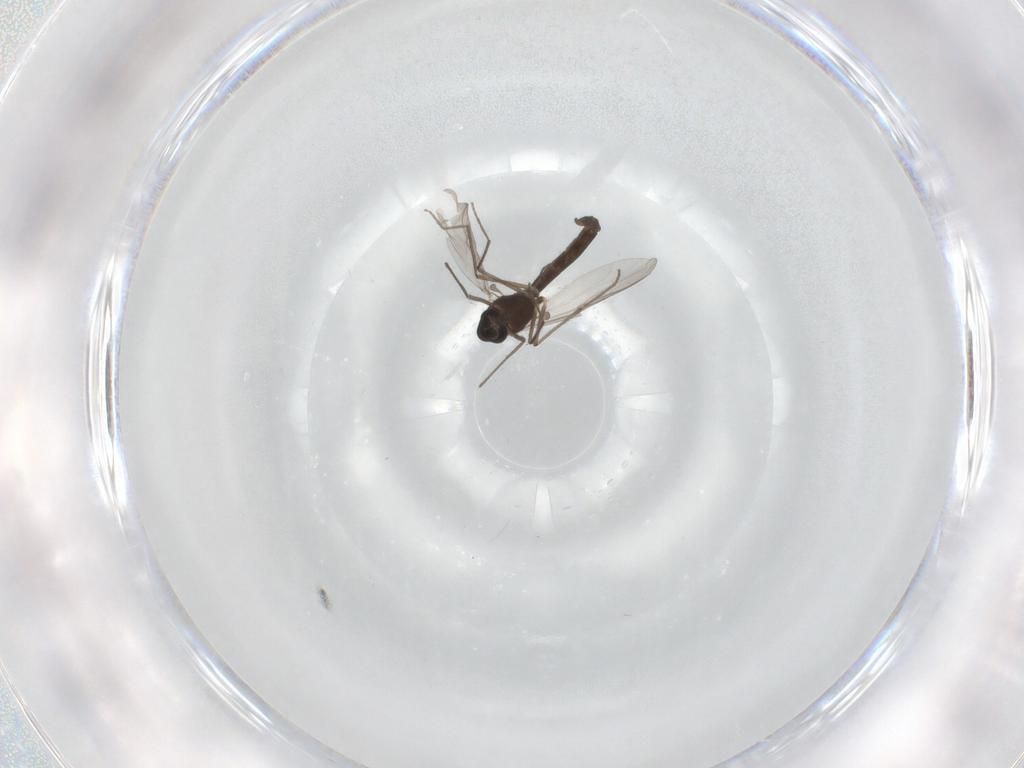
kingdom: Animalia
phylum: Arthropoda
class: Insecta
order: Diptera
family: Chironomidae
